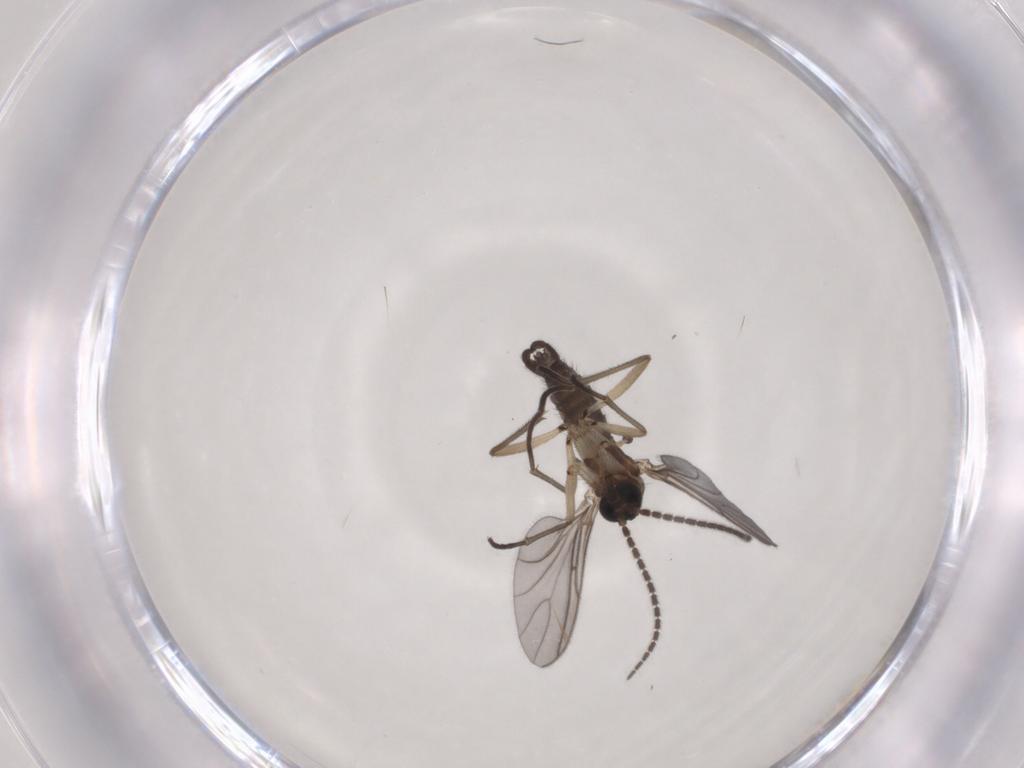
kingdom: Animalia
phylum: Arthropoda
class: Insecta
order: Diptera
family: Sciaridae
